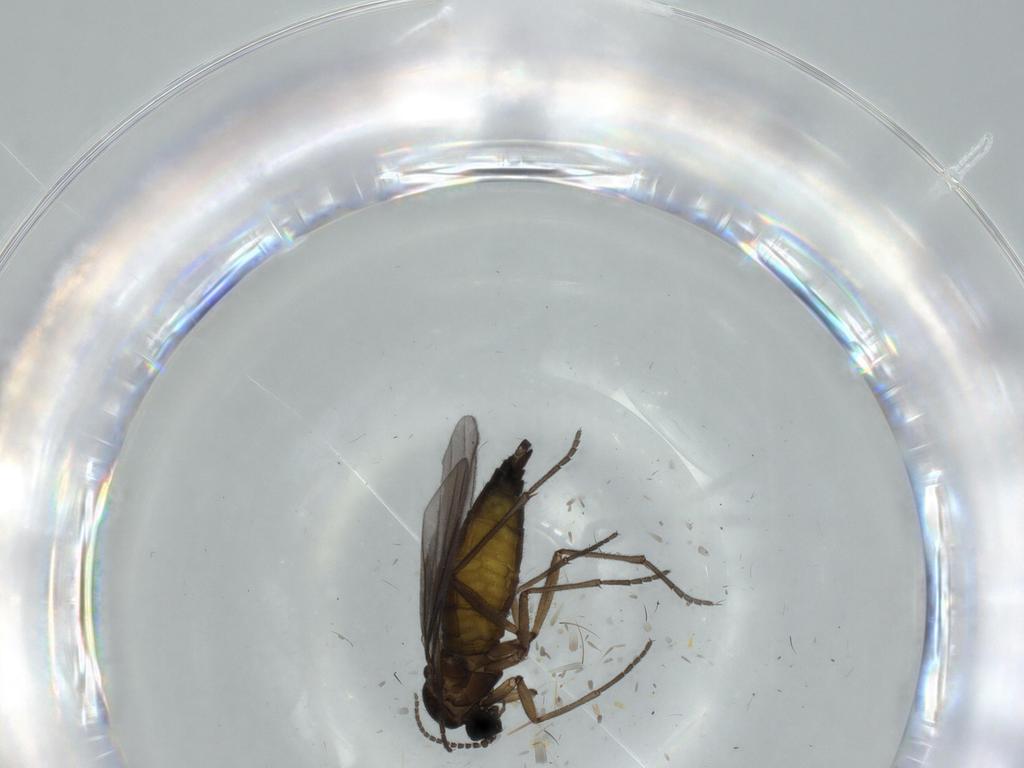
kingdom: Animalia
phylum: Arthropoda
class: Insecta
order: Diptera
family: Sciaridae
